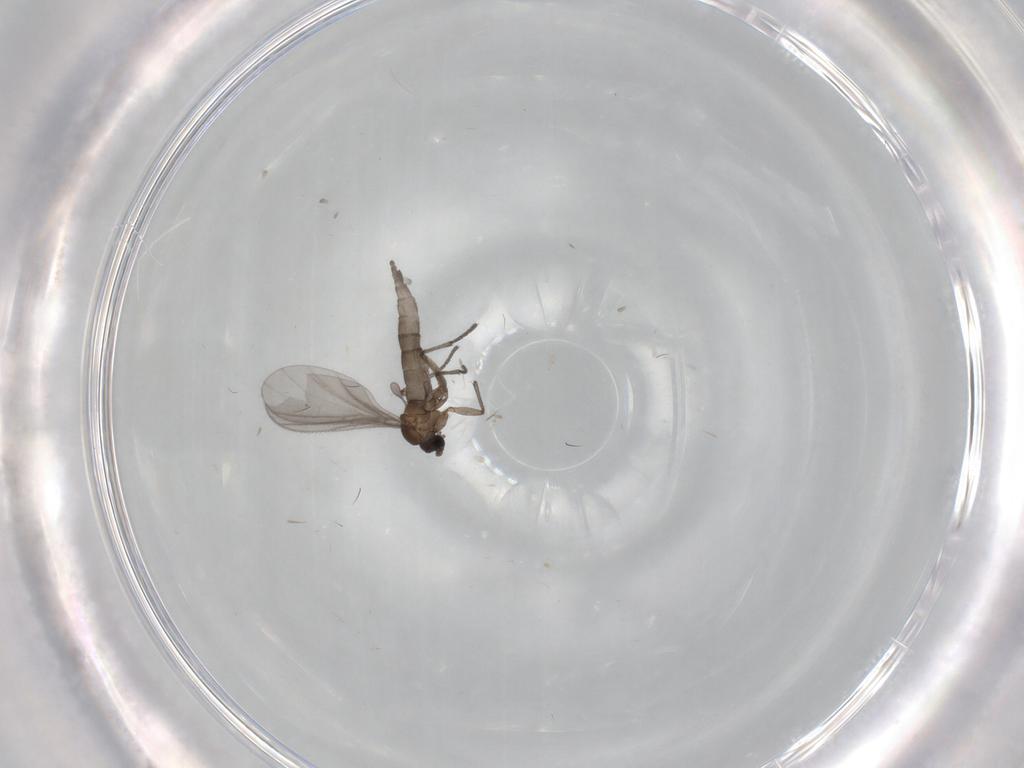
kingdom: Animalia
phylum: Arthropoda
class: Insecta
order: Diptera
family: Sciaridae
